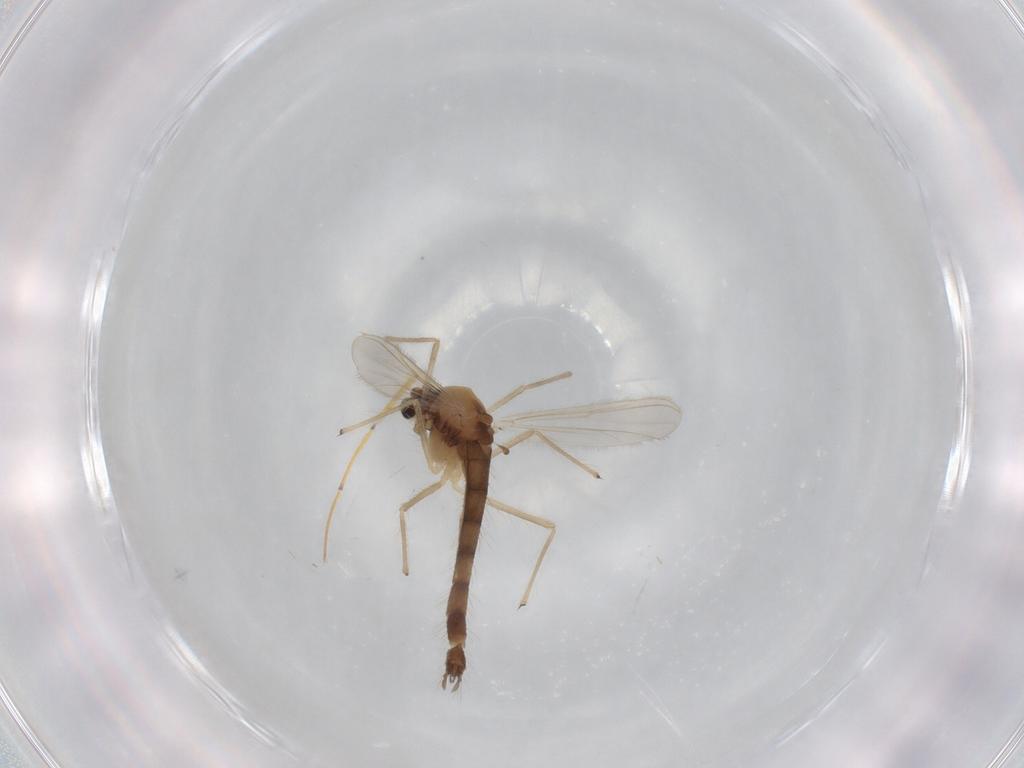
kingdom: Animalia
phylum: Arthropoda
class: Insecta
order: Diptera
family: Chironomidae
